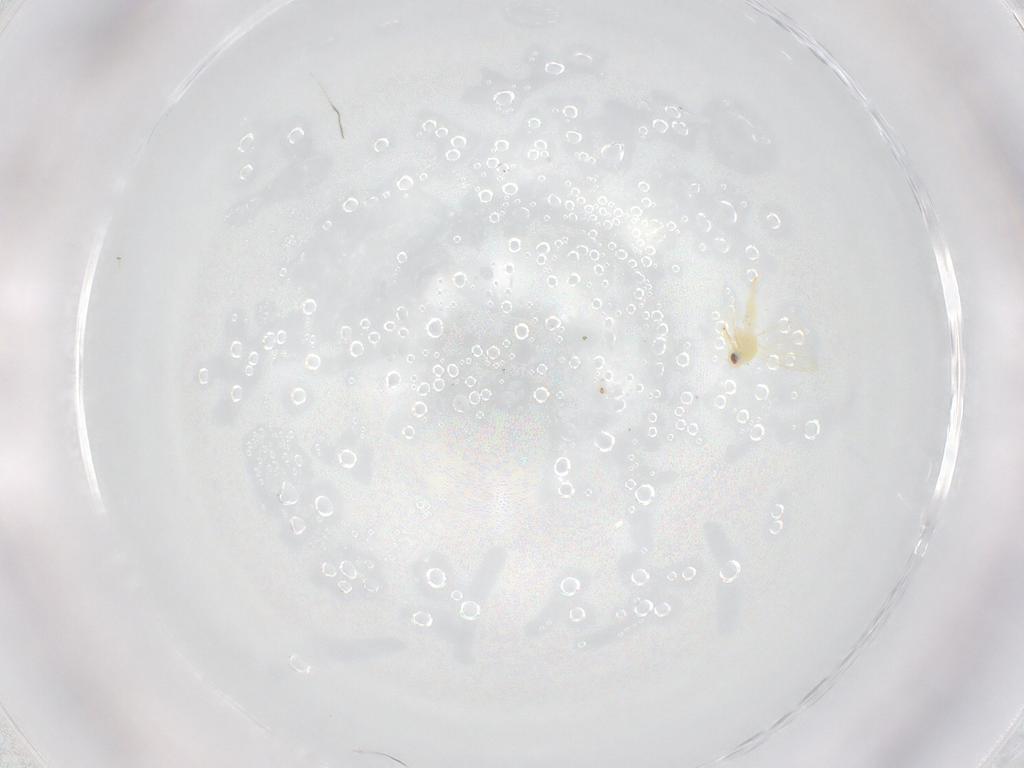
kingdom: Animalia
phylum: Arthropoda
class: Insecta
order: Hemiptera
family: Aleyrodidae
